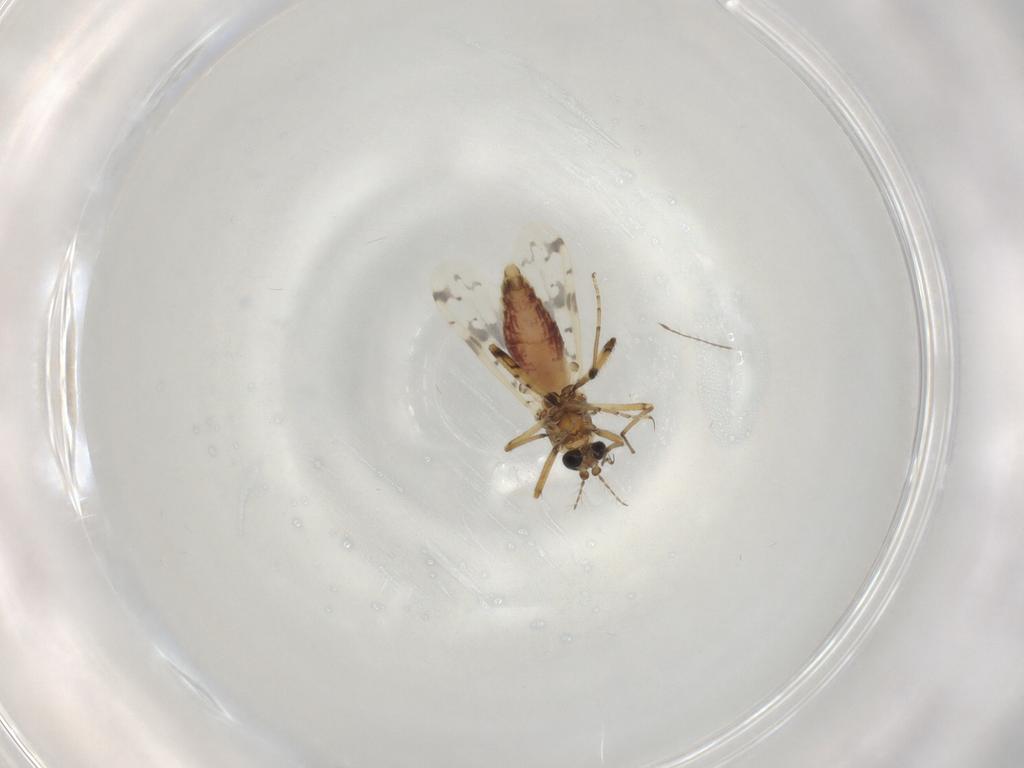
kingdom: Animalia
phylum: Arthropoda
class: Insecta
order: Diptera
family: Ceratopogonidae
